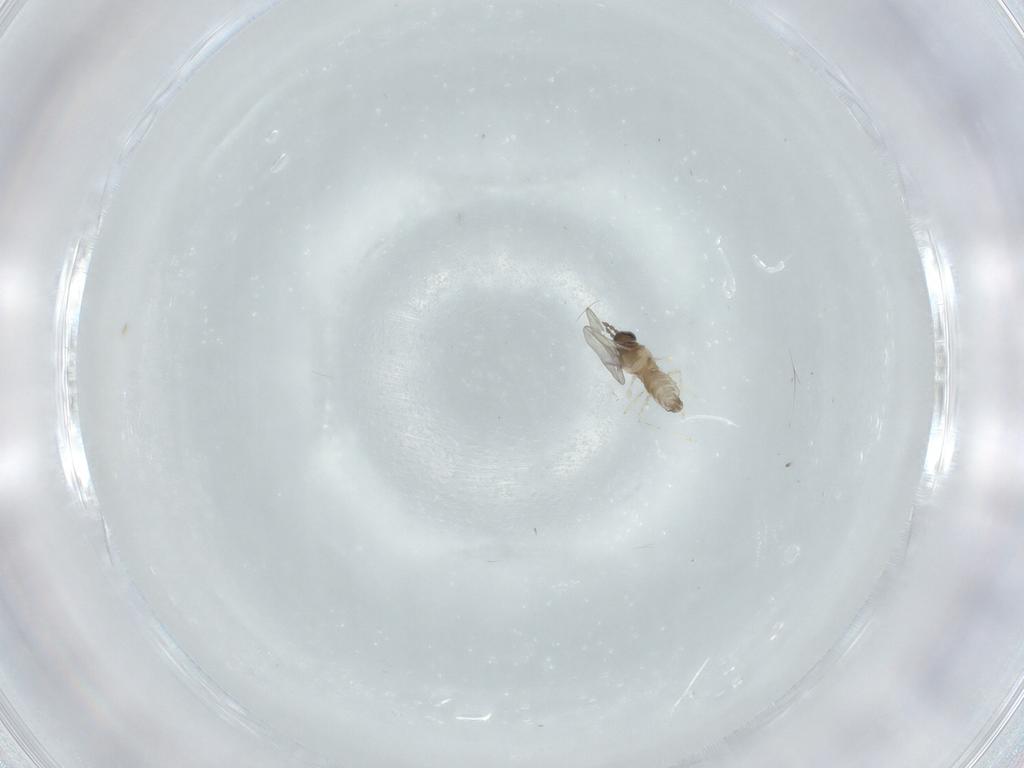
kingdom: Animalia
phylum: Arthropoda
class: Insecta
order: Diptera
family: Cecidomyiidae
